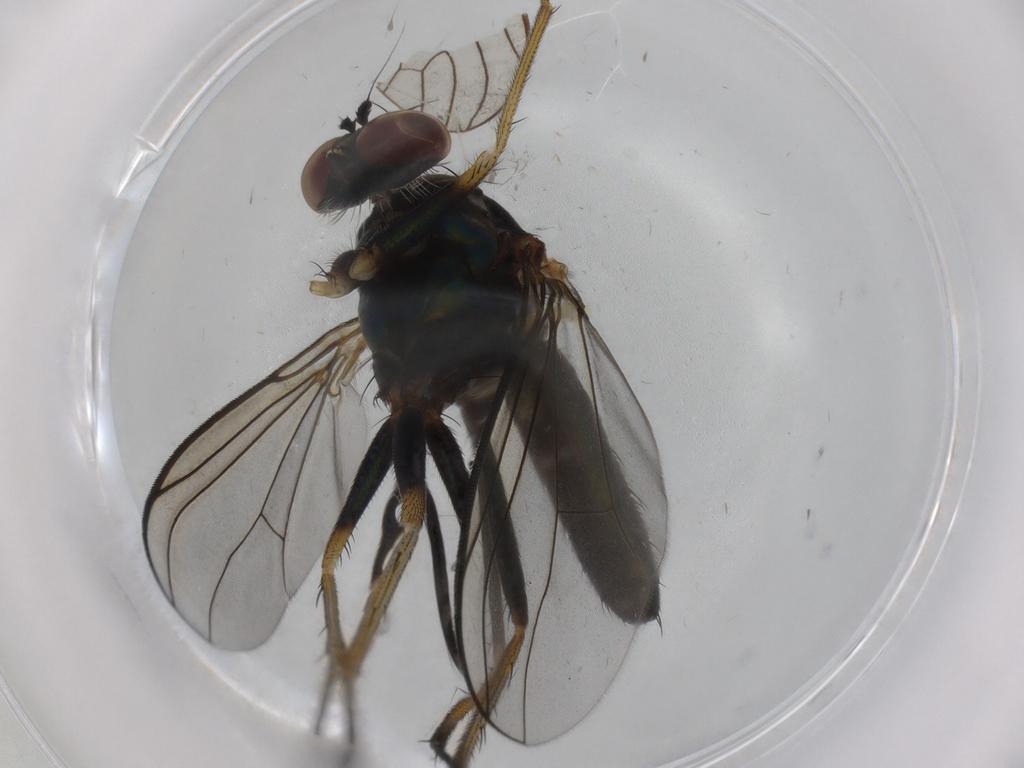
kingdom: Animalia
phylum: Arthropoda
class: Insecta
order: Diptera
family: Dolichopodidae
